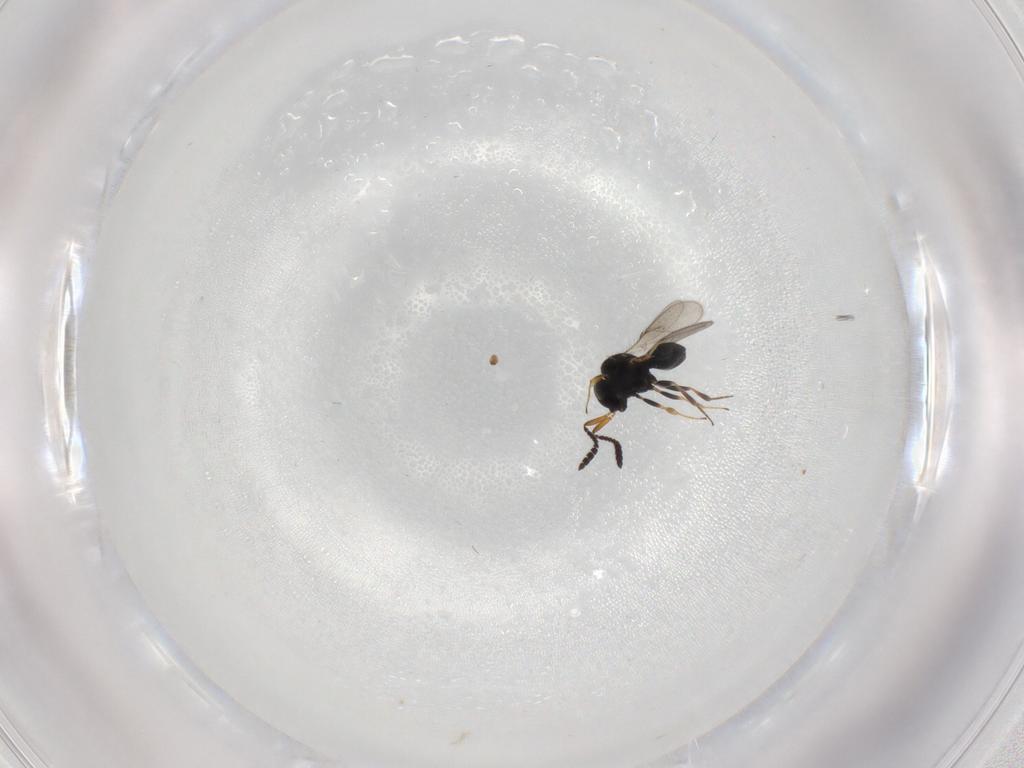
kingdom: Animalia
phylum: Arthropoda
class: Insecta
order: Hymenoptera
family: Scelionidae
